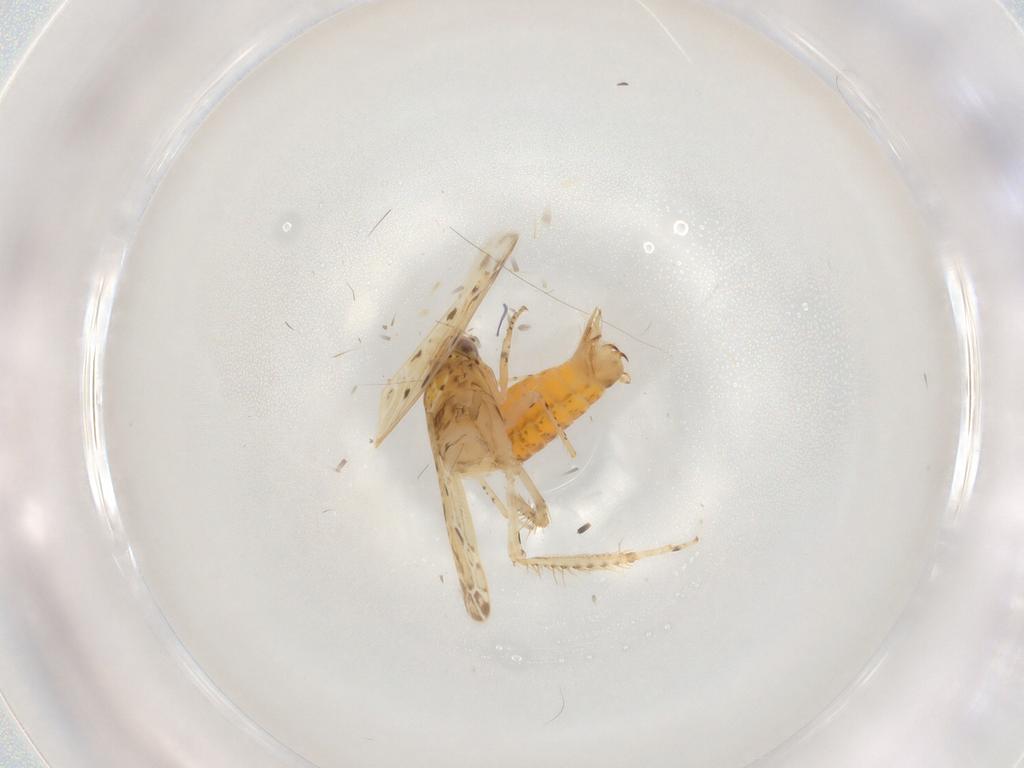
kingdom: Animalia
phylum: Arthropoda
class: Insecta
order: Hemiptera
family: Cicadellidae
